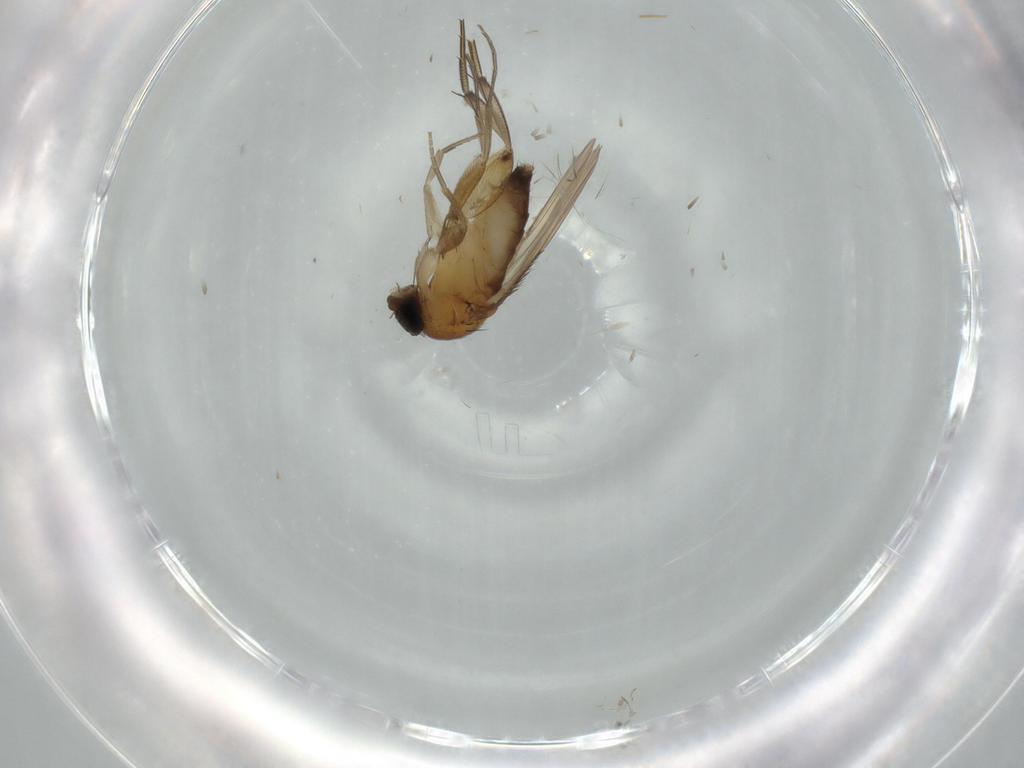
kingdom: Animalia
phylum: Arthropoda
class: Insecta
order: Diptera
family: Phoridae
